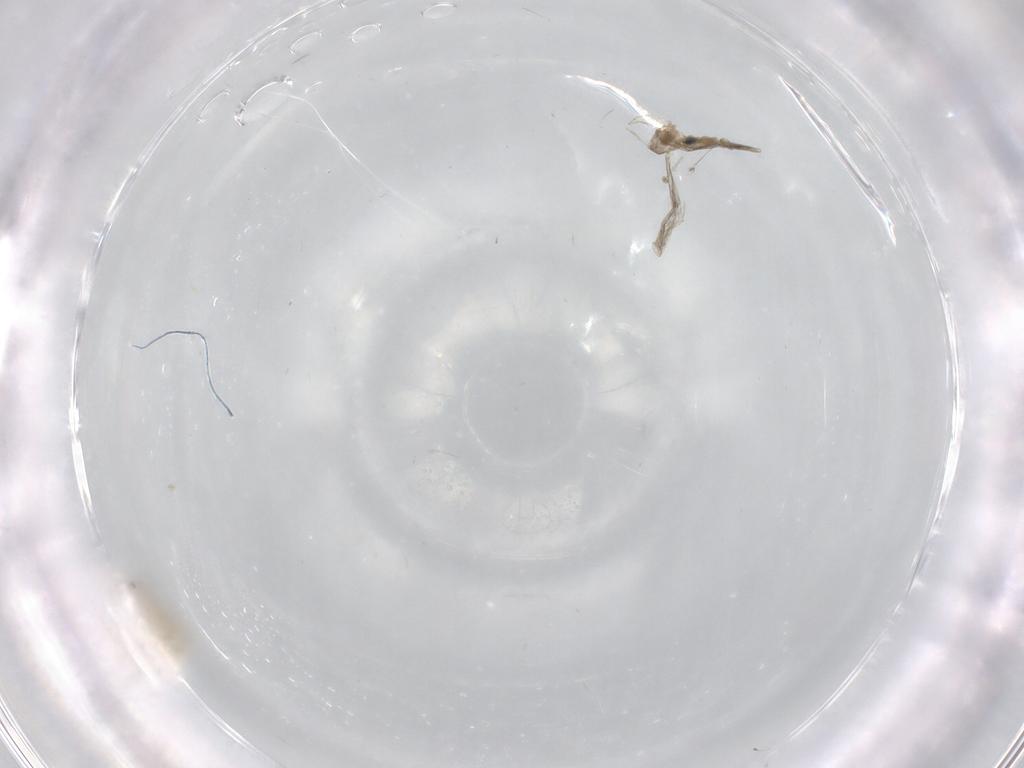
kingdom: Animalia
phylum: Arthropoda
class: Insecta
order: Diptera
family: Cecidomyiidae
